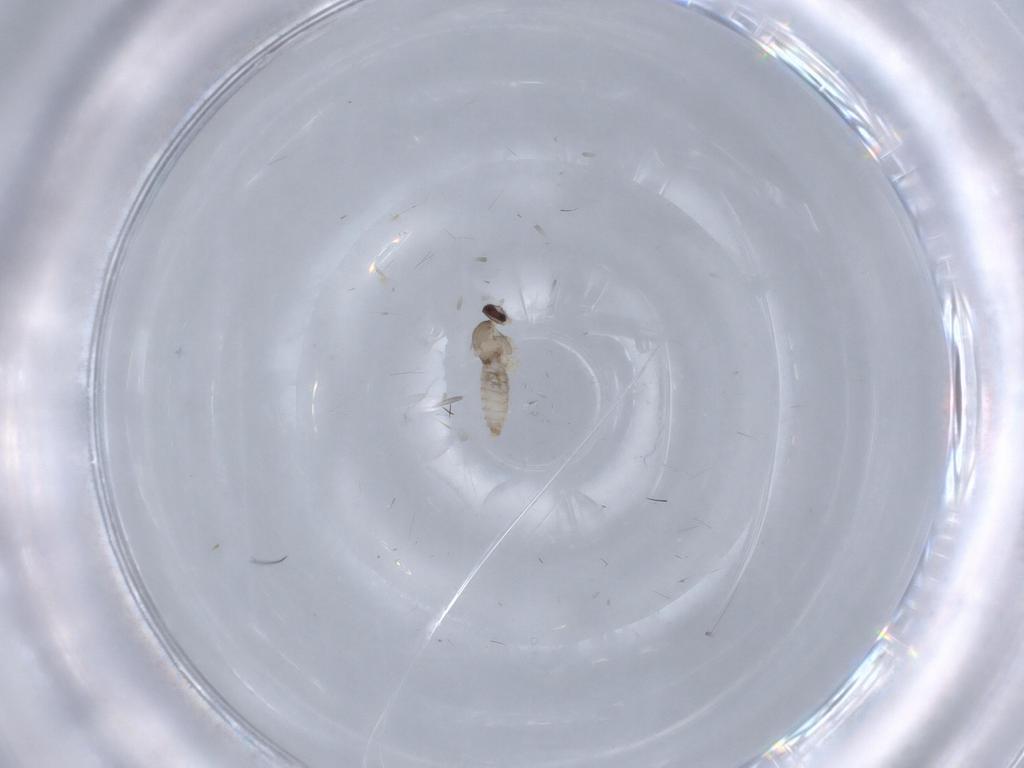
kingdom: Animalia
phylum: Arthropoda
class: Insecta
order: Diptera
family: Cecidomyiidae
